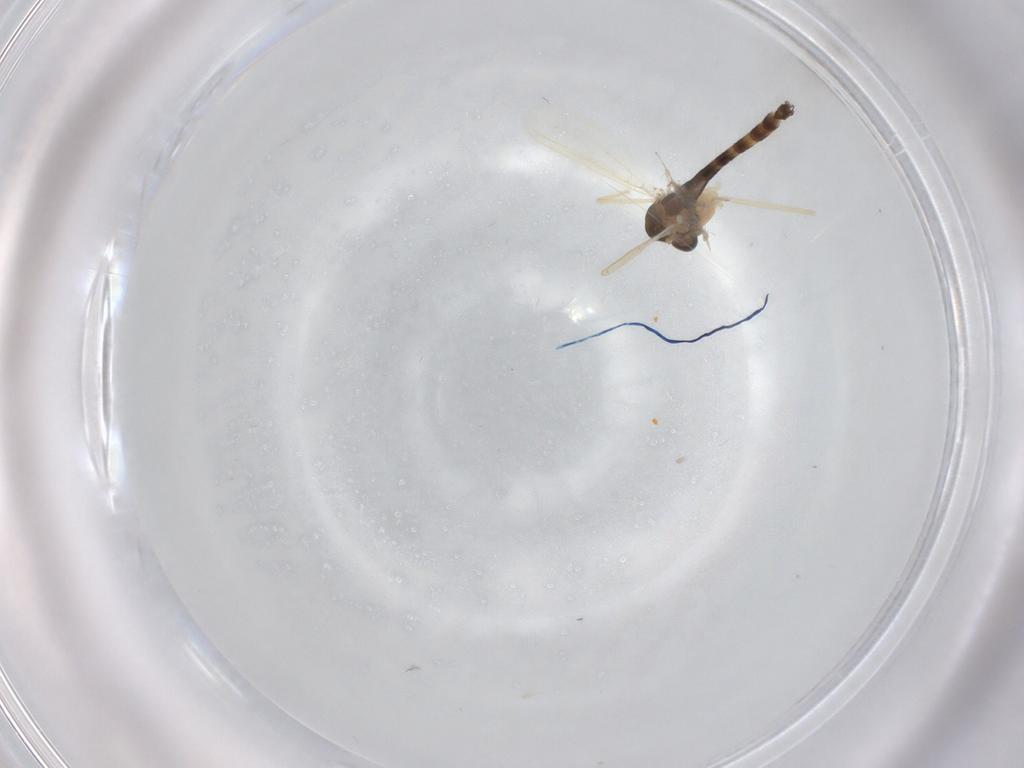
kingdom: Animalia
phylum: Arthropoda
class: Insecta
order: Diptera
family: Chironomidae
